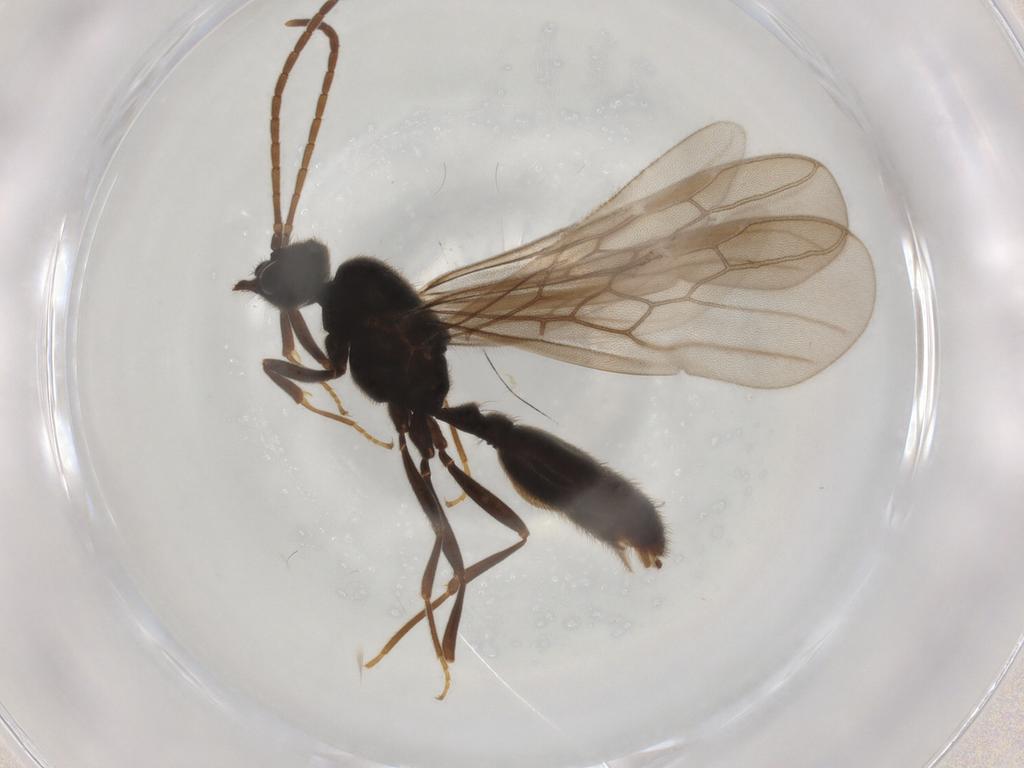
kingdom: Animalia
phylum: Arthropoda
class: Insecta
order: Hymenoptera
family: Formicidae
